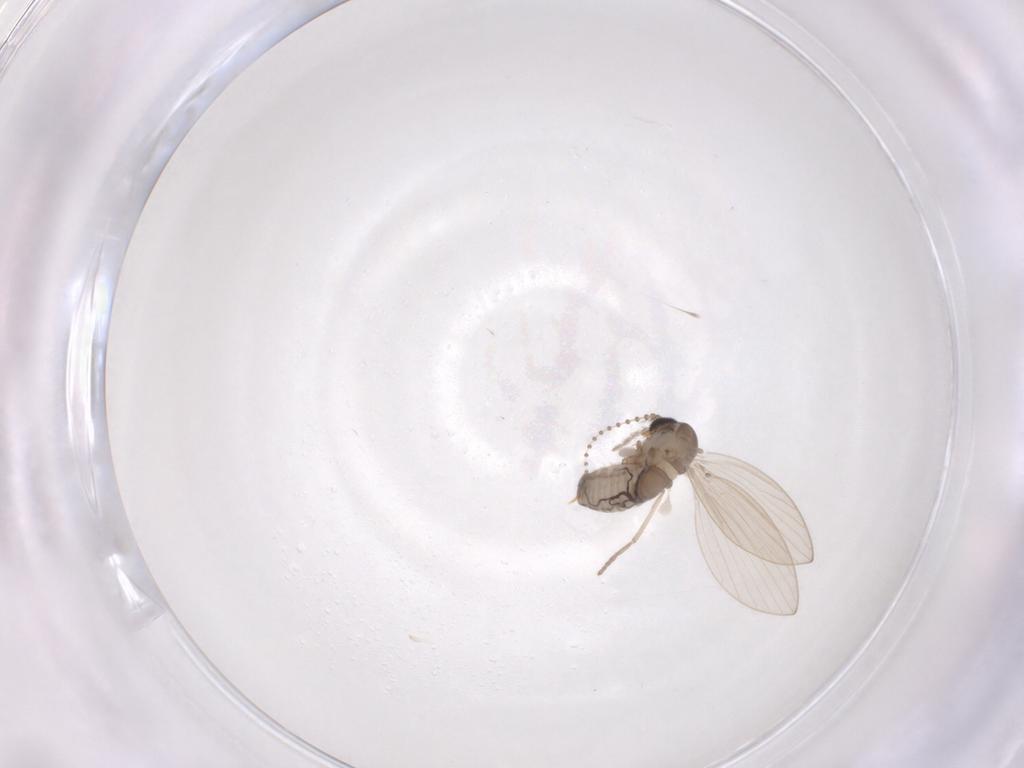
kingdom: Animalia
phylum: Arthropoda
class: Insecta
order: Diptera
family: Psychodidae
